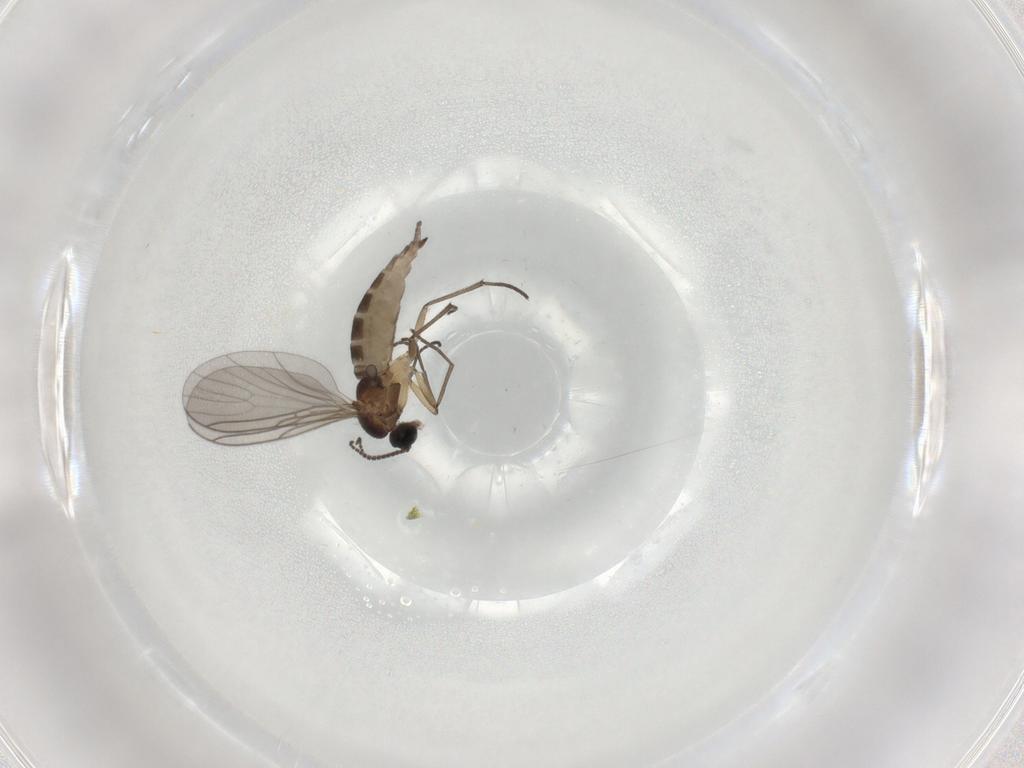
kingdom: Animalia
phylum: Arthropoda
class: Insecta
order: Diptera
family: Sciaridae
